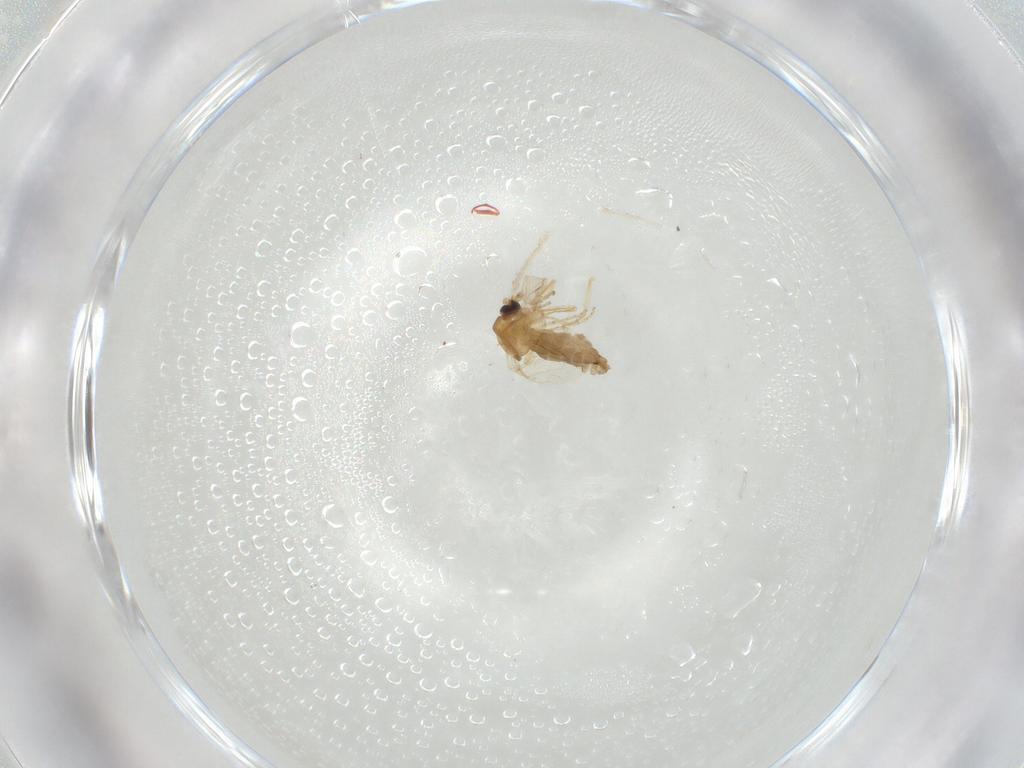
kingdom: Animalia
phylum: Arthropoda
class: Insecta
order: Diptera
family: Ceratopogonidae
